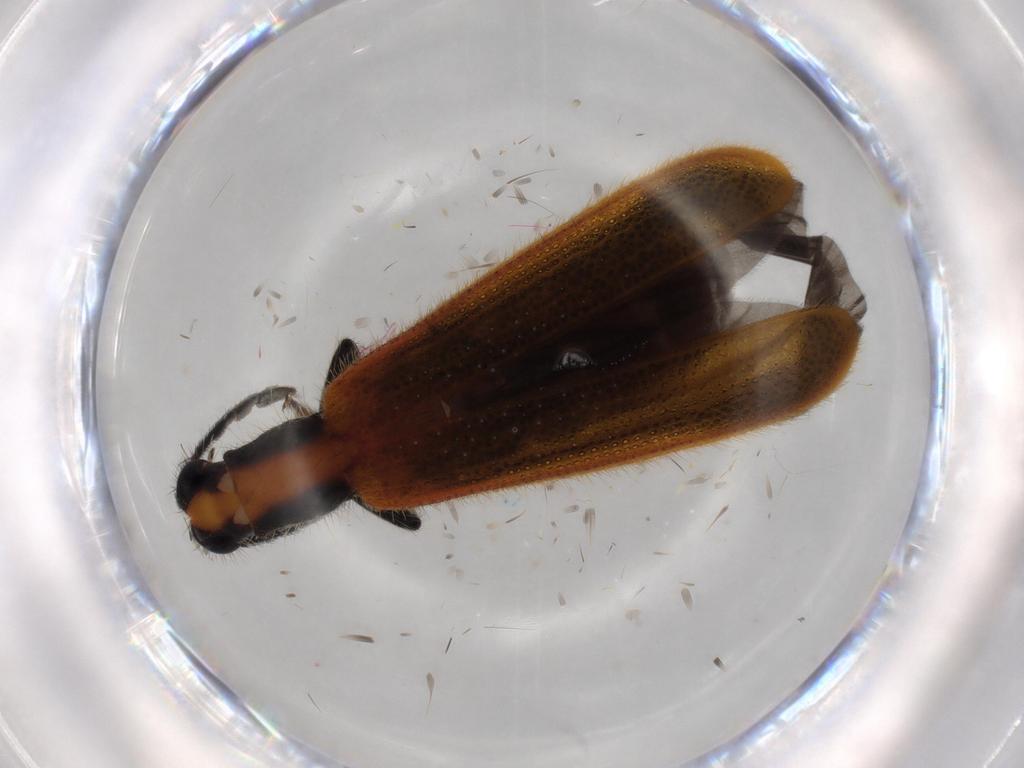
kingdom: Animalia
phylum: Arthropoda
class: Insecta
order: Coleoptera
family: Cleridae
